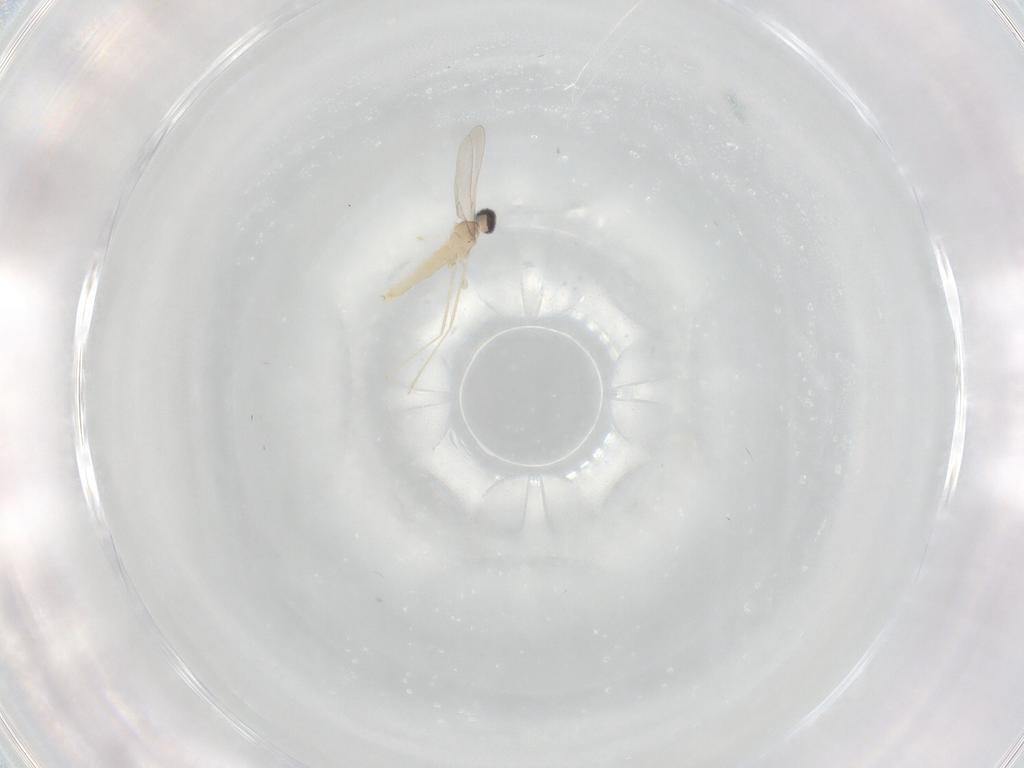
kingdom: Animalia
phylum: Arthropoda
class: Insecta
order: Diptera
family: Cecidomyiidae
